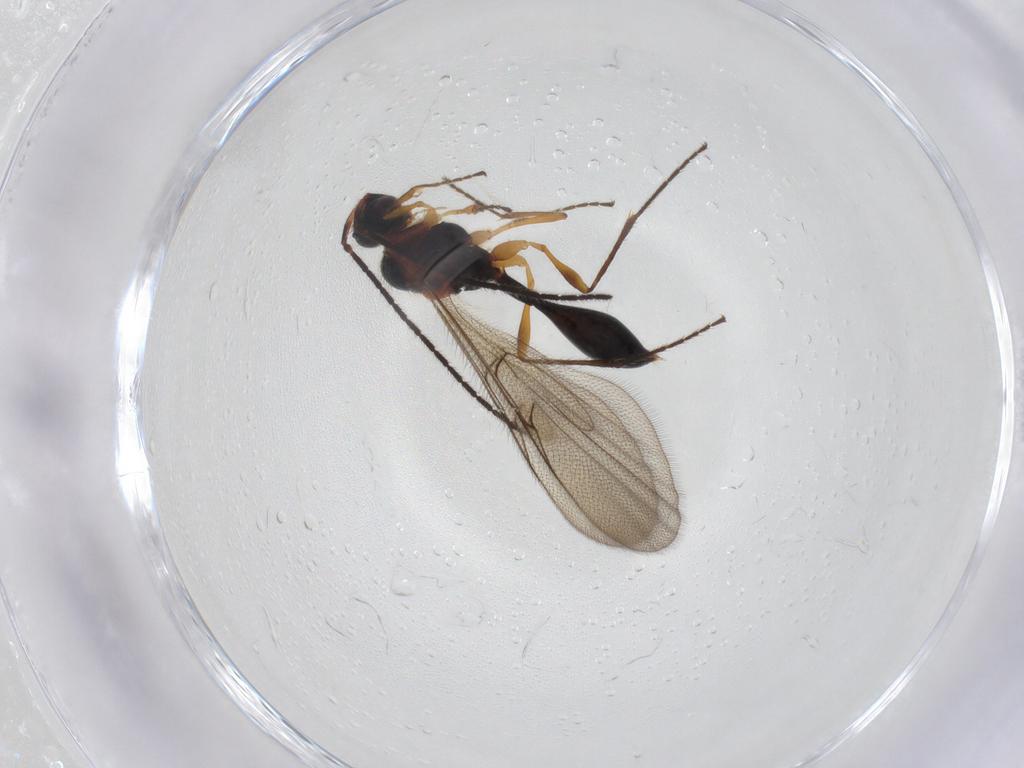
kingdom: Animalia
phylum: Arthropoda
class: Insecta
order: Hymenoptera
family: Diapriidae
